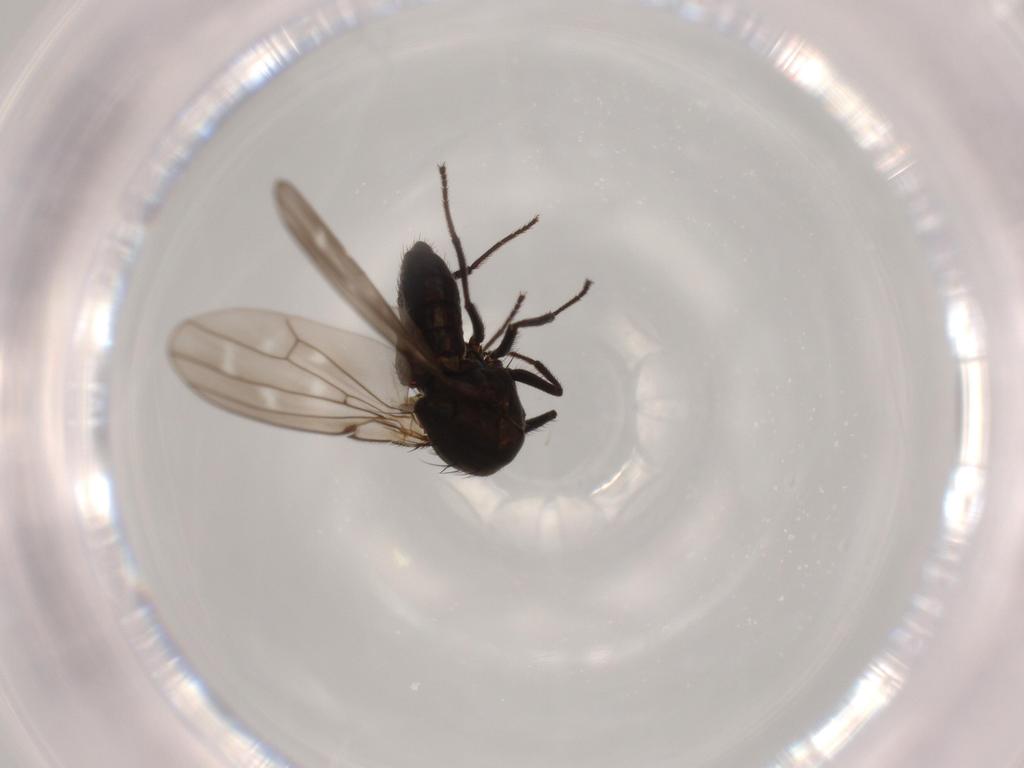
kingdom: Animalia
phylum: Arthropoda
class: Insecta
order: Diptera
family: Ephydridae
